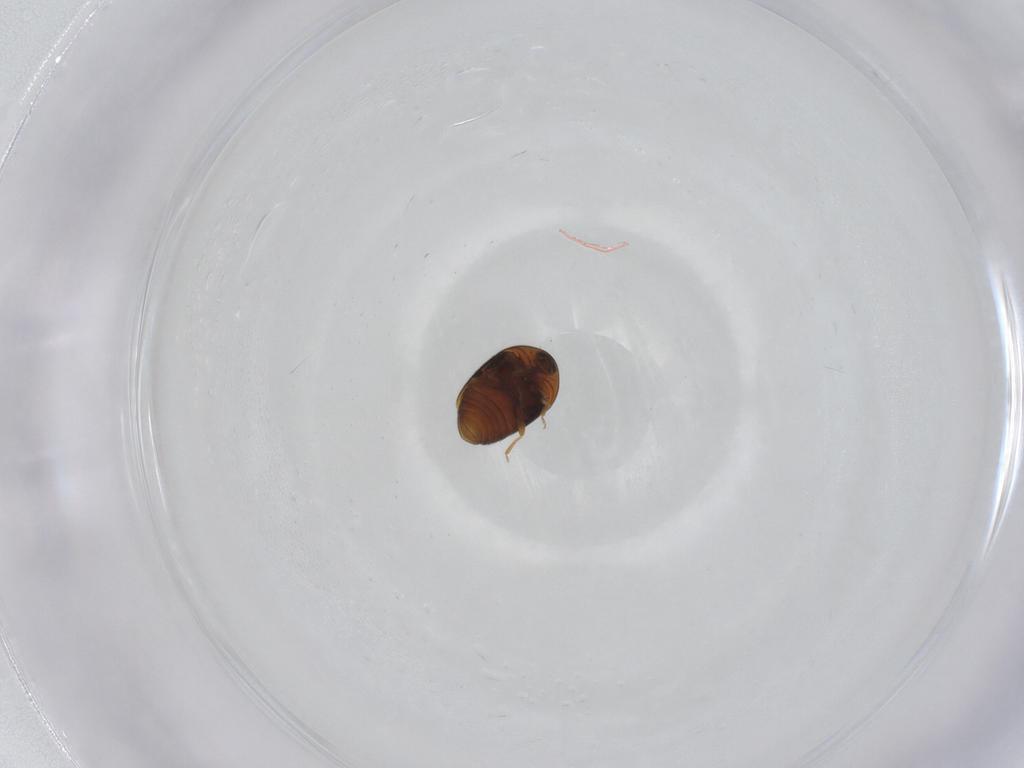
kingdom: Animalia
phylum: Arthropoda
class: Insecta
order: Coleoptera
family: Corylophidae
